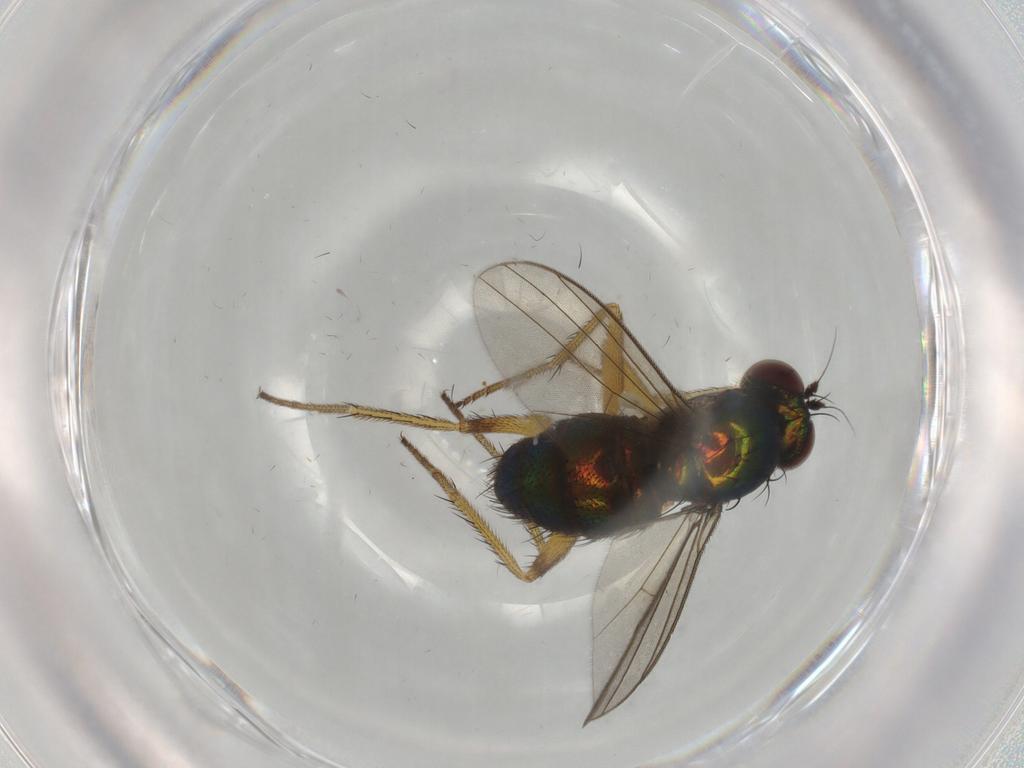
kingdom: Animalia
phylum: Arthropoda
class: Insecta
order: Diptera
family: Dolichopodidae
